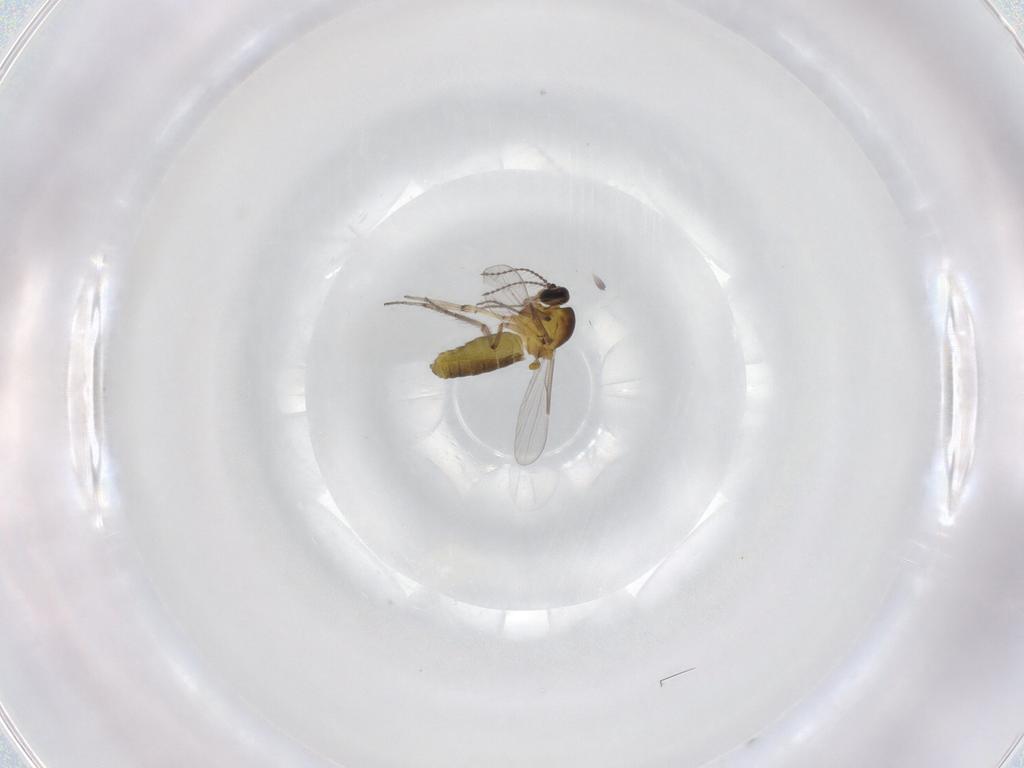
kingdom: Animalia
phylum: Arthropoda
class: Insecta
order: Diptera
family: Ceratopogonidae
